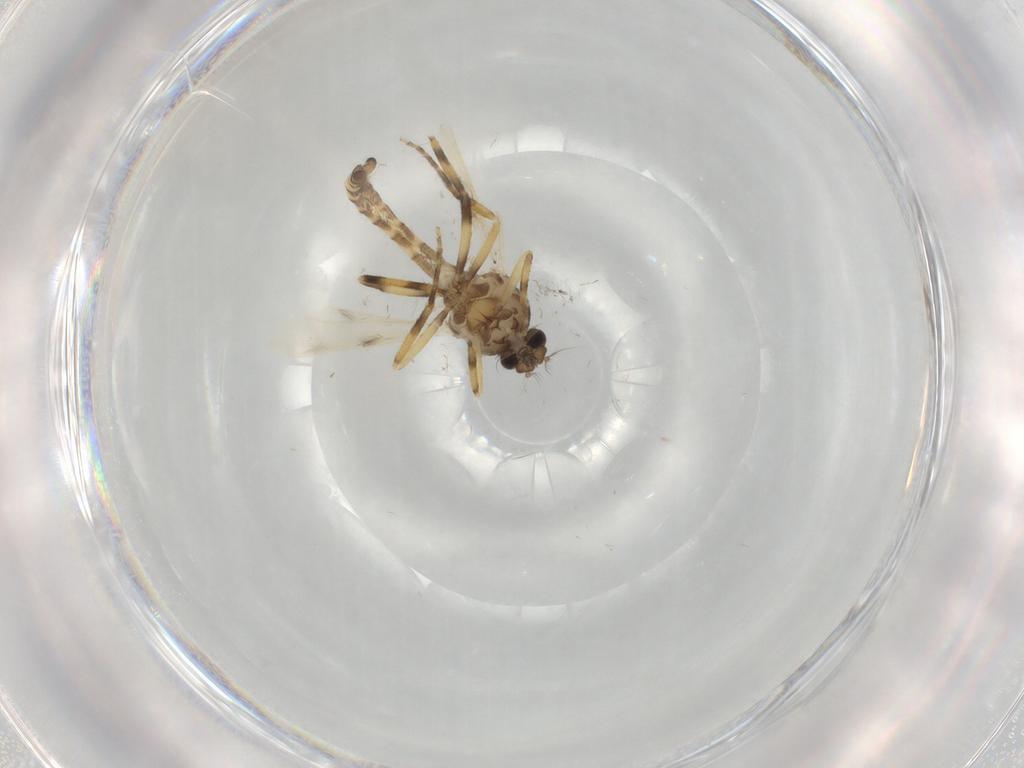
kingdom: Animalia
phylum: Arthropoda
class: Insecta
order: Diptera
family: Ceratopogonidae
